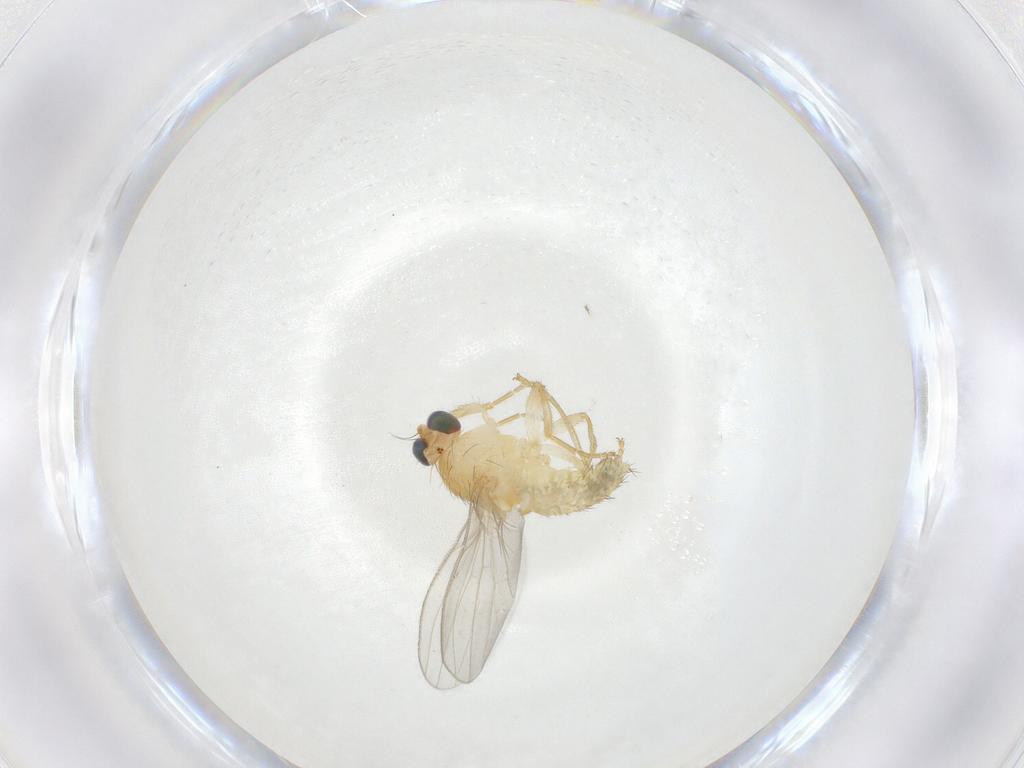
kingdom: Animalia
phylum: Arthropoda
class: Insecta
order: Diptera
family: Chyromyidae
